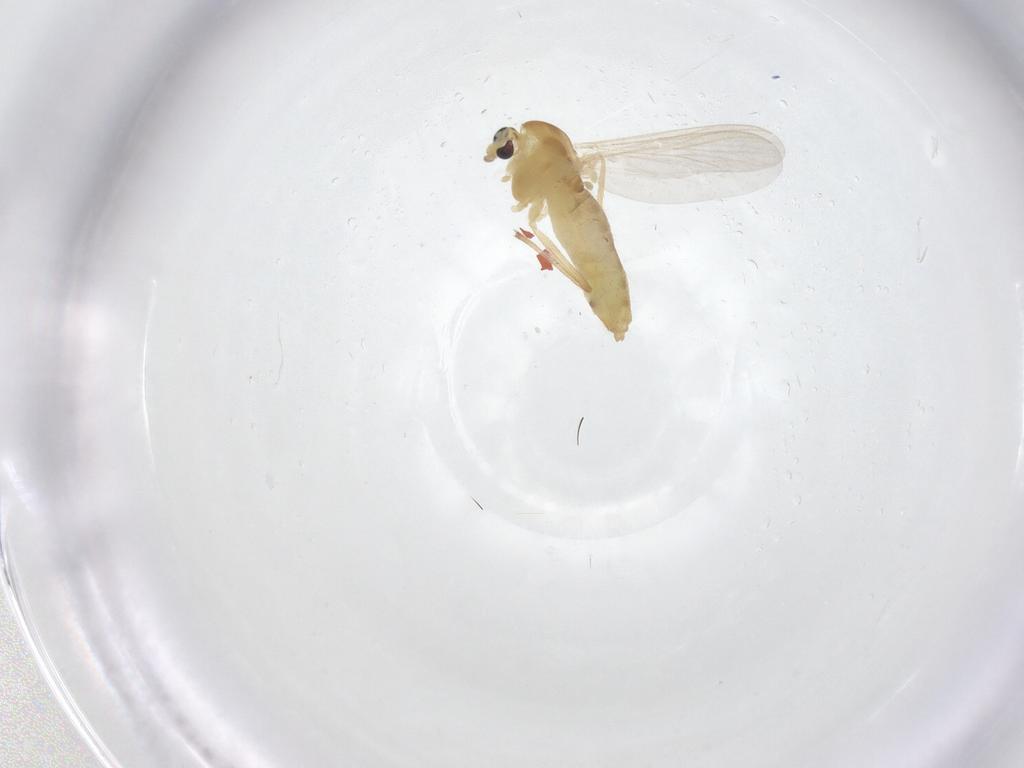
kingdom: Animalia
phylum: Arthropoda
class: Insecta
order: Diptera
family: Chironomidae
